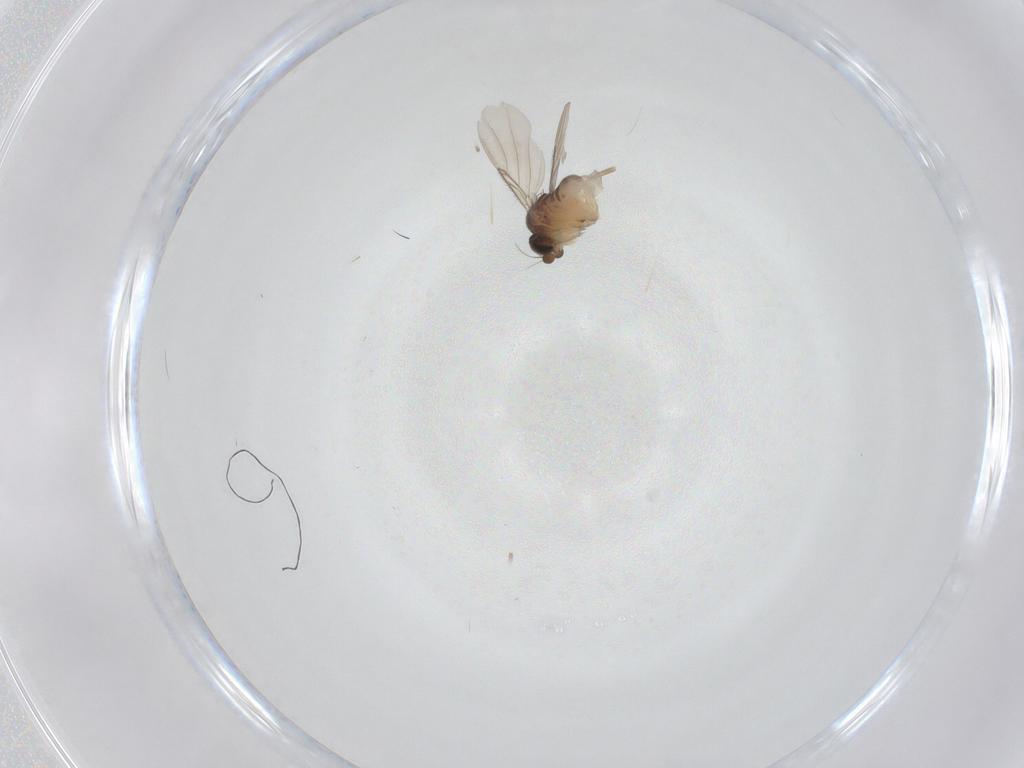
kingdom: Animalia
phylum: Arthropoda
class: Insecta
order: Diptera
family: Phoridae
